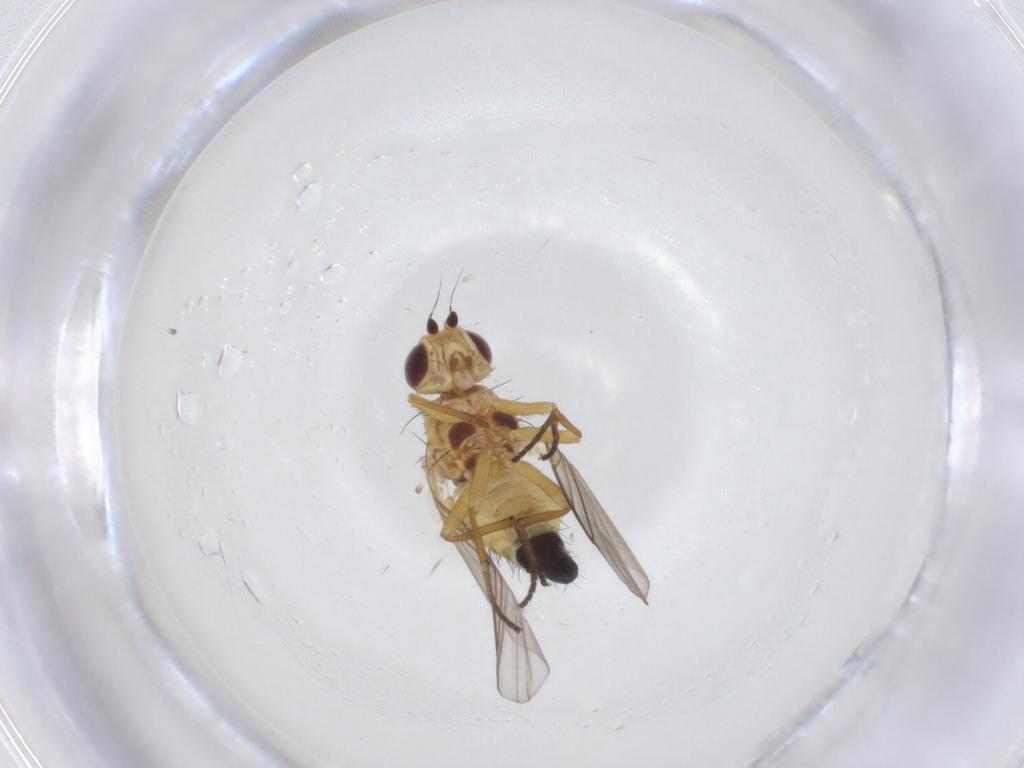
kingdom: Animalia
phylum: Arthropoda
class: Insecta
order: Diptera
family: Agromyzidae
